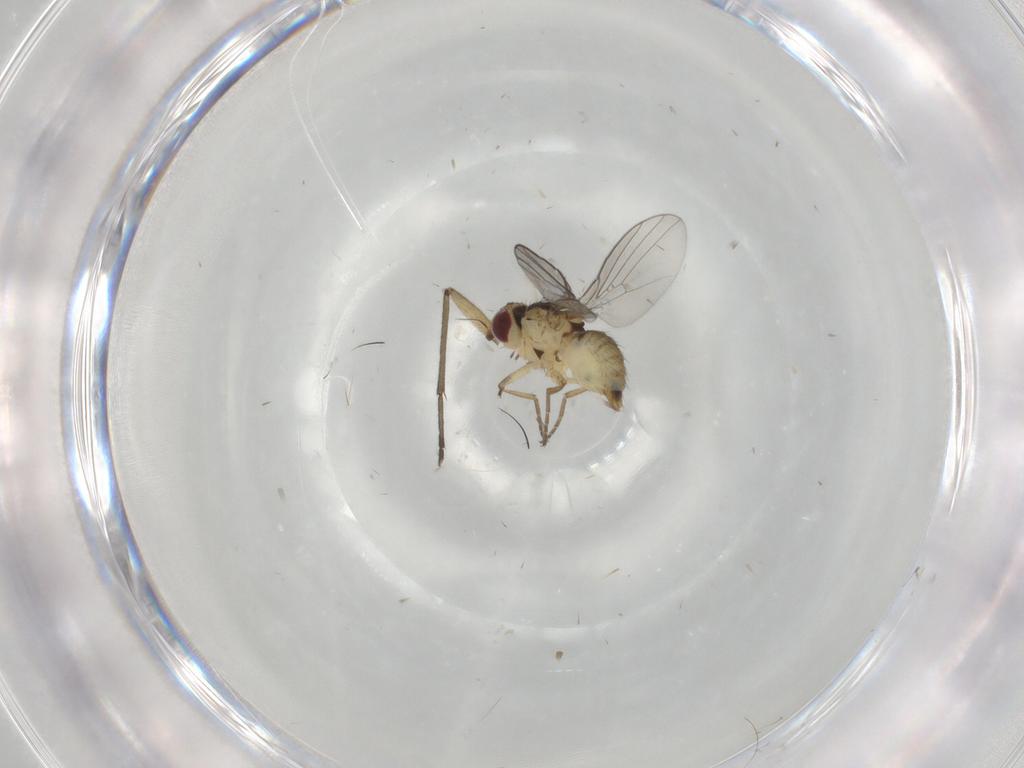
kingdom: Animalia
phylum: Arthropoda
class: Insecta
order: Diptera
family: Agromyzidae
